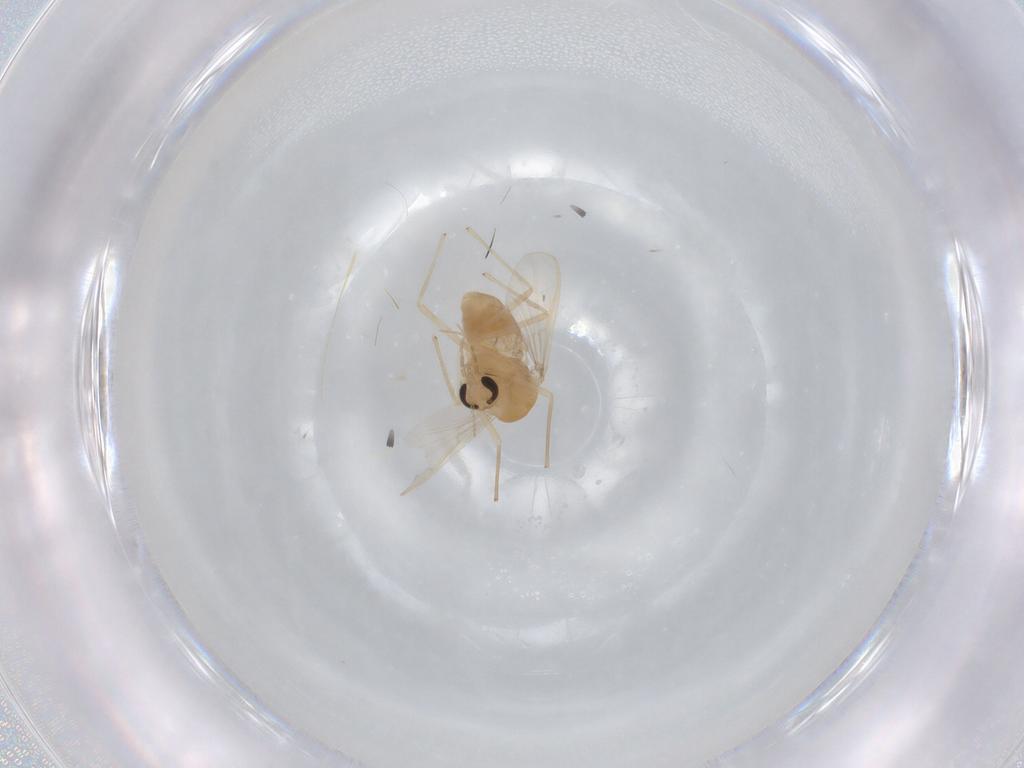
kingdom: Animalia
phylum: Arthropoda
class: Insecta
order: Diptera
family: Chironomidae
